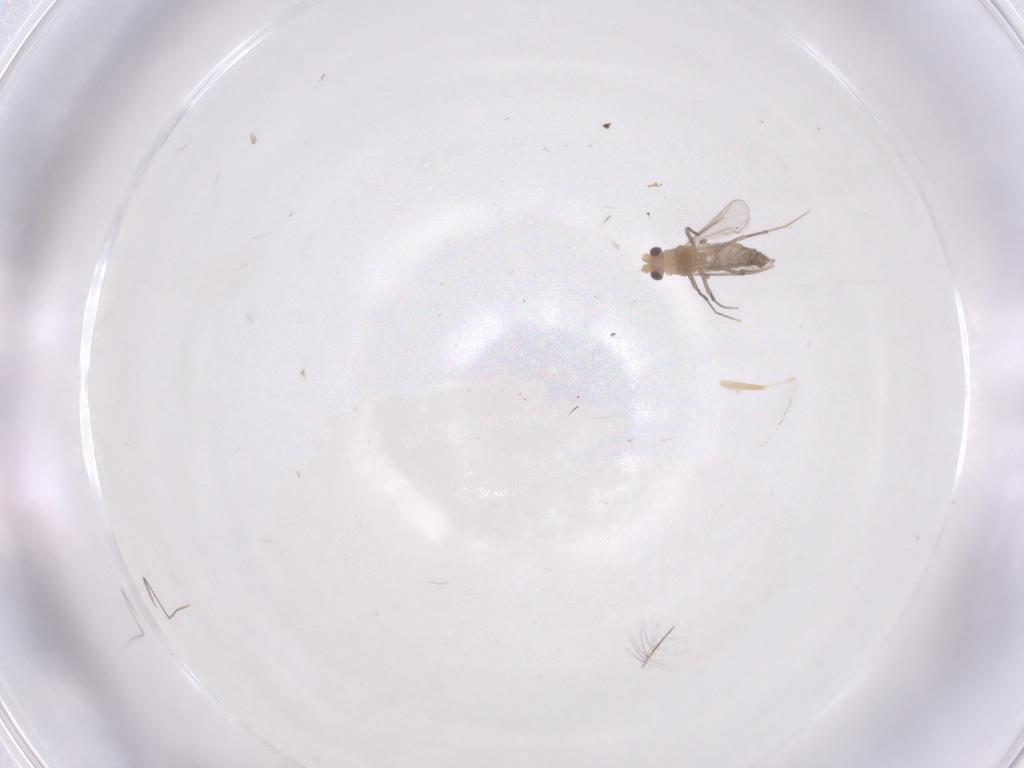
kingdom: Animalia
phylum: Arthropoda
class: Insecta
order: Diptera
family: Chironomidae
